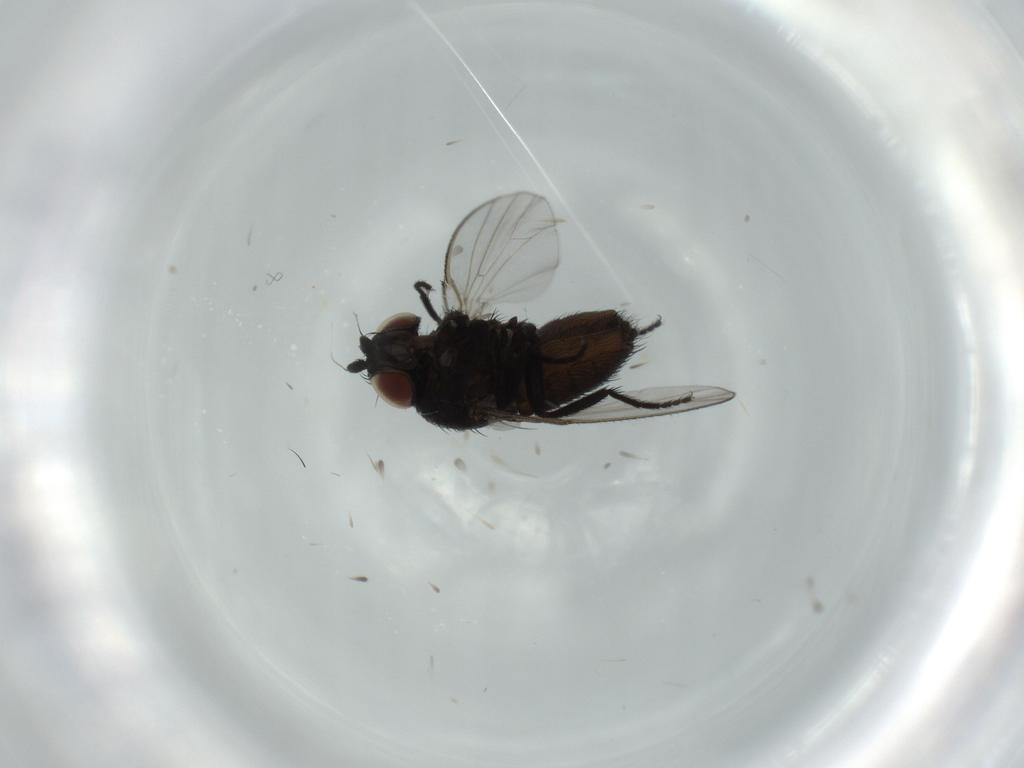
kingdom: Animalia
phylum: Arthropoda
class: Insecta
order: Diptera
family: Milichiidae
